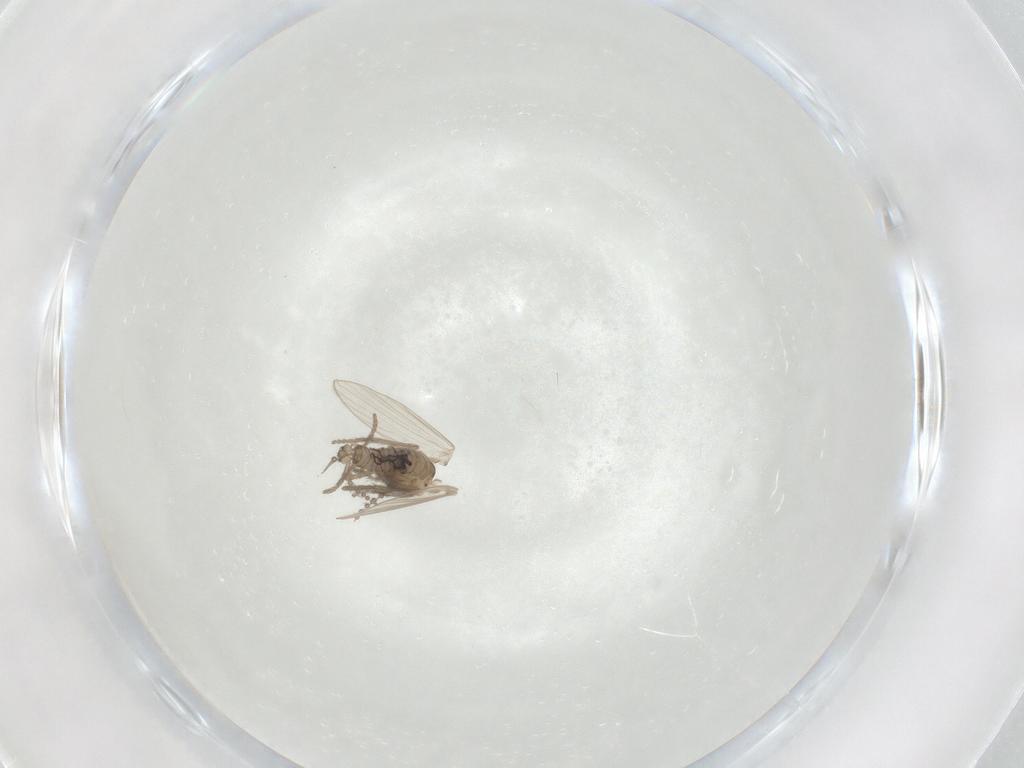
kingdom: Animalia
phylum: Arthropoda
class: Insecta
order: Diptera
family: Psychodidae
